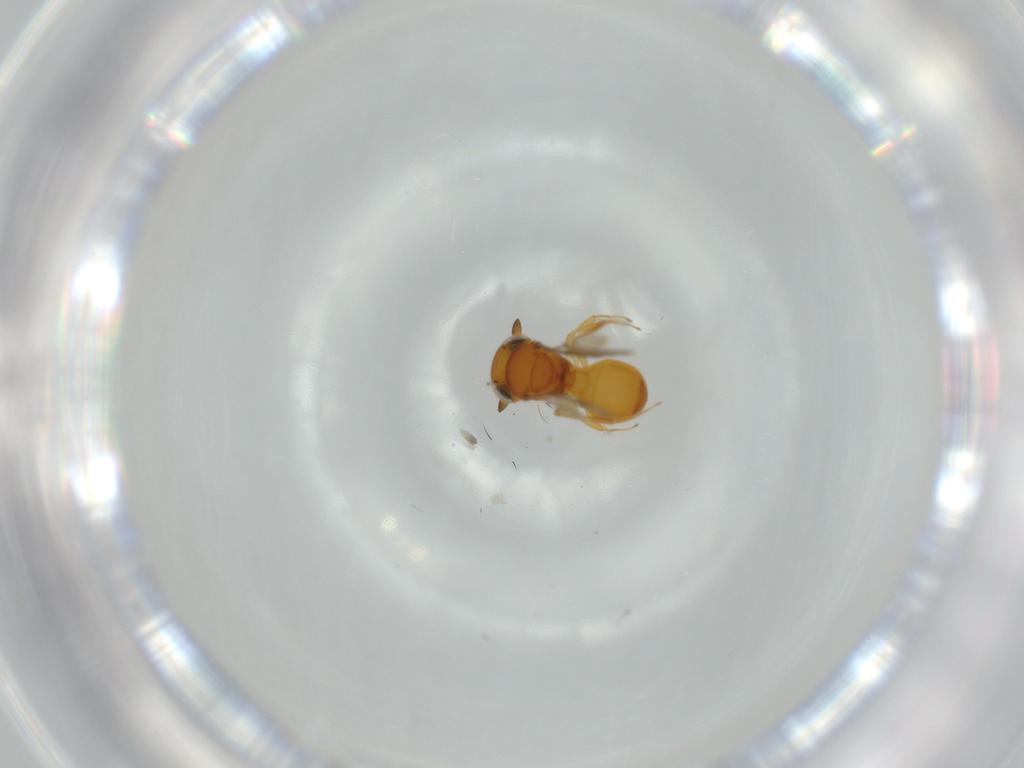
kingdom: Animalia
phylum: Arthropoda
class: Insecta
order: Hymenoptera
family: Scelionidae
